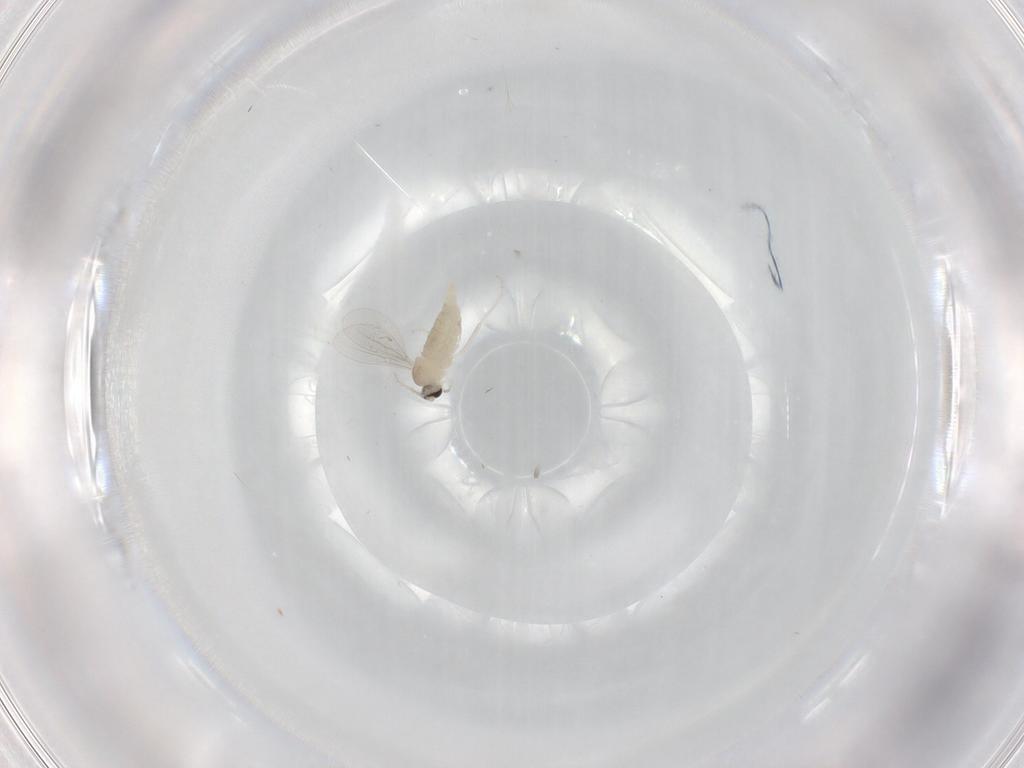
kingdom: Animalia
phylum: Arthropoda
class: Insecta
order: Diptera
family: Cecidomyiidae
